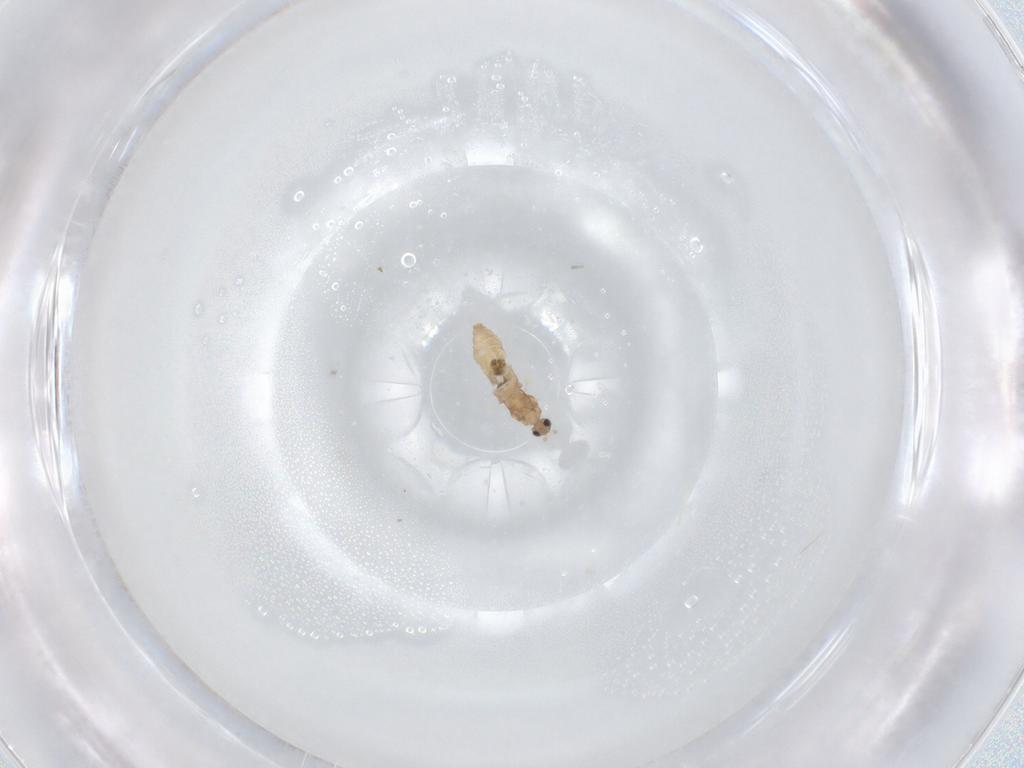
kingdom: Animalia
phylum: Arthropoda
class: Insecta
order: Diptera
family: Cecidomyiidae
